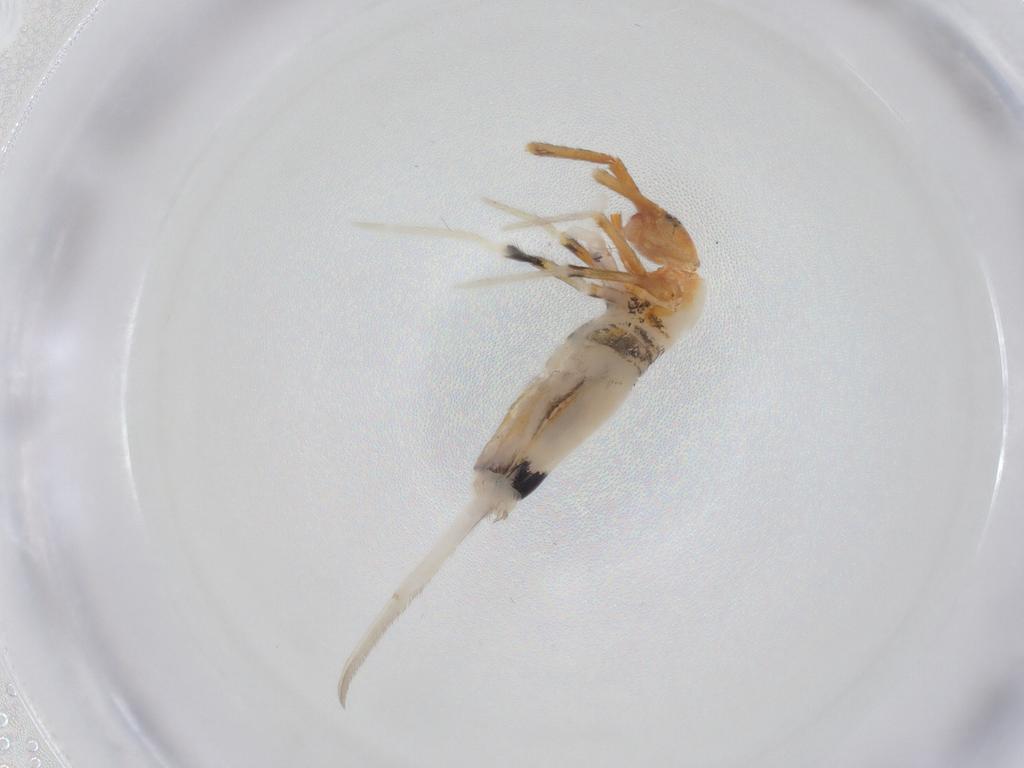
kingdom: Animalia
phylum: Arthropoda
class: Collembola
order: Entomobryomorpha
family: Entomobryidae
